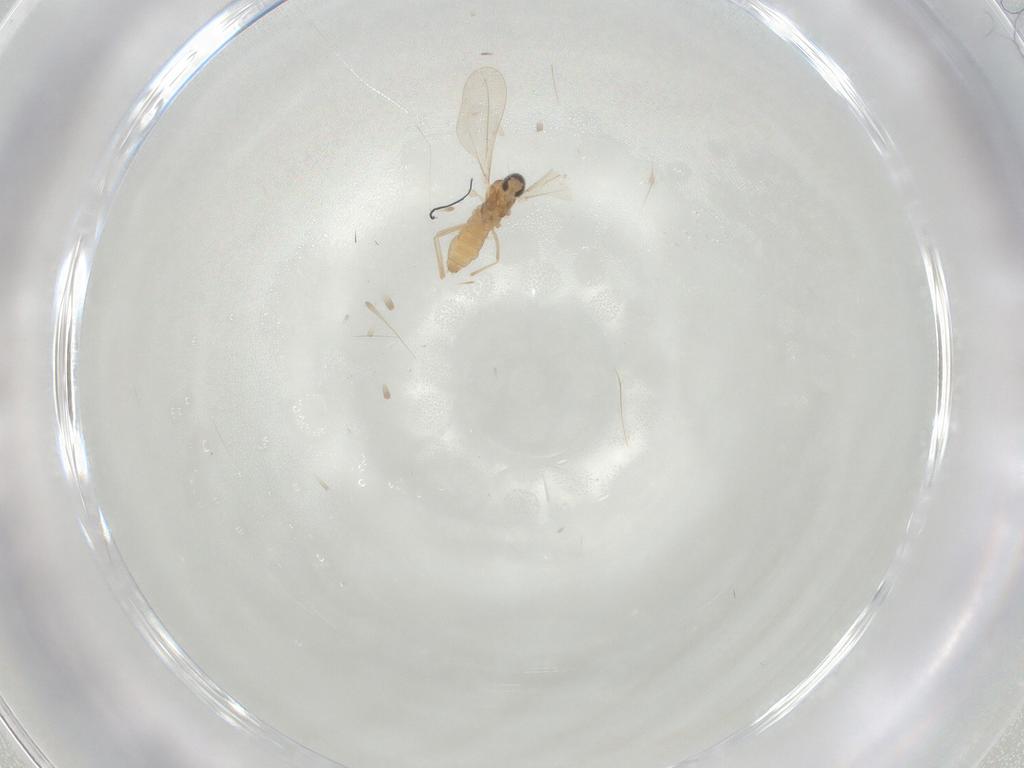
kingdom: Animalia
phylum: Arthropoda
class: Insecta
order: Diptera
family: Cecidomyiidae
